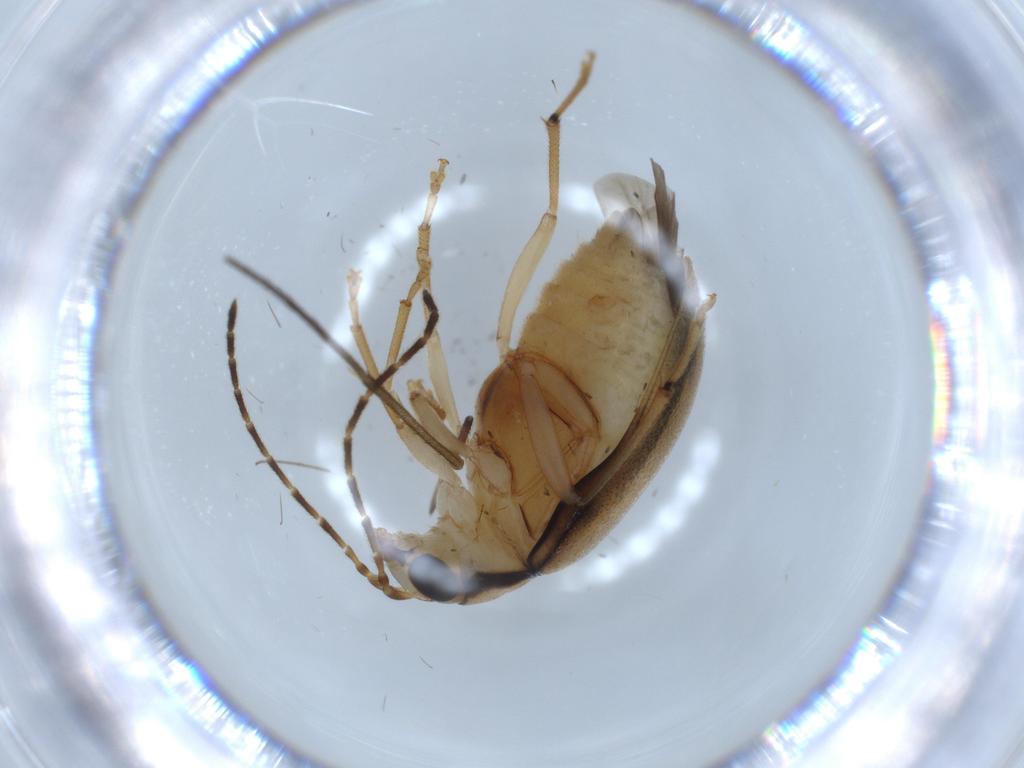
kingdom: Animalia
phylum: Arthropoda
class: Insecta
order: Coleoptera
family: Chrysomelidae
